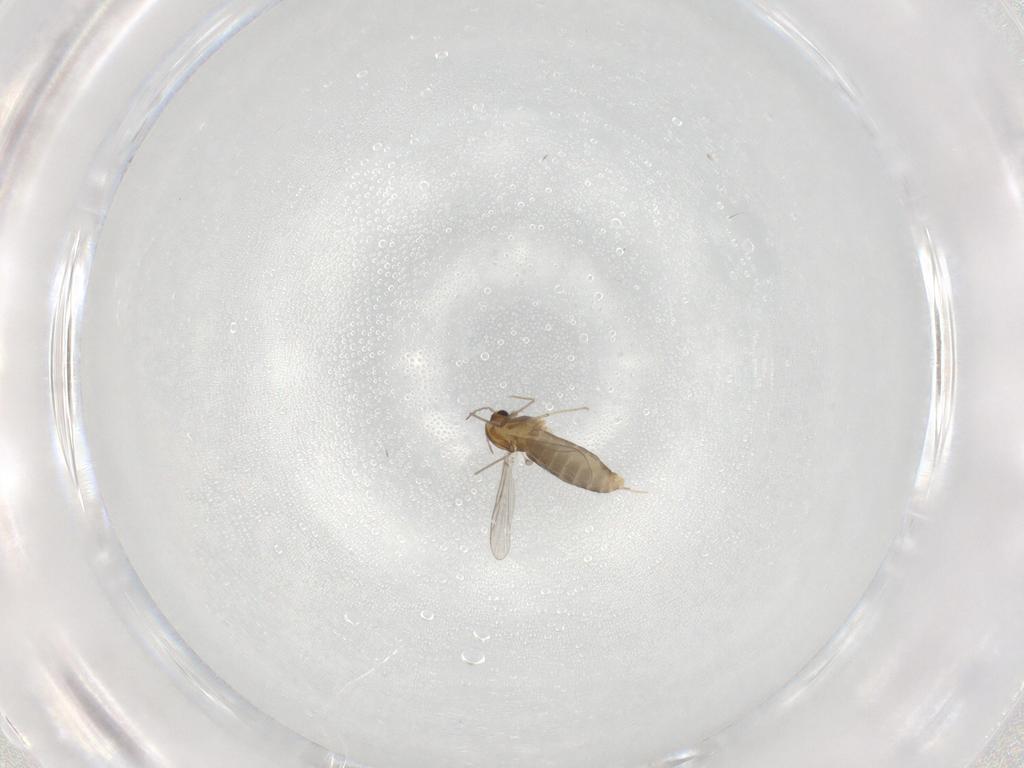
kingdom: Animalia
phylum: Arthropoda
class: Insecta
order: Diptera
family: Chironomidae
